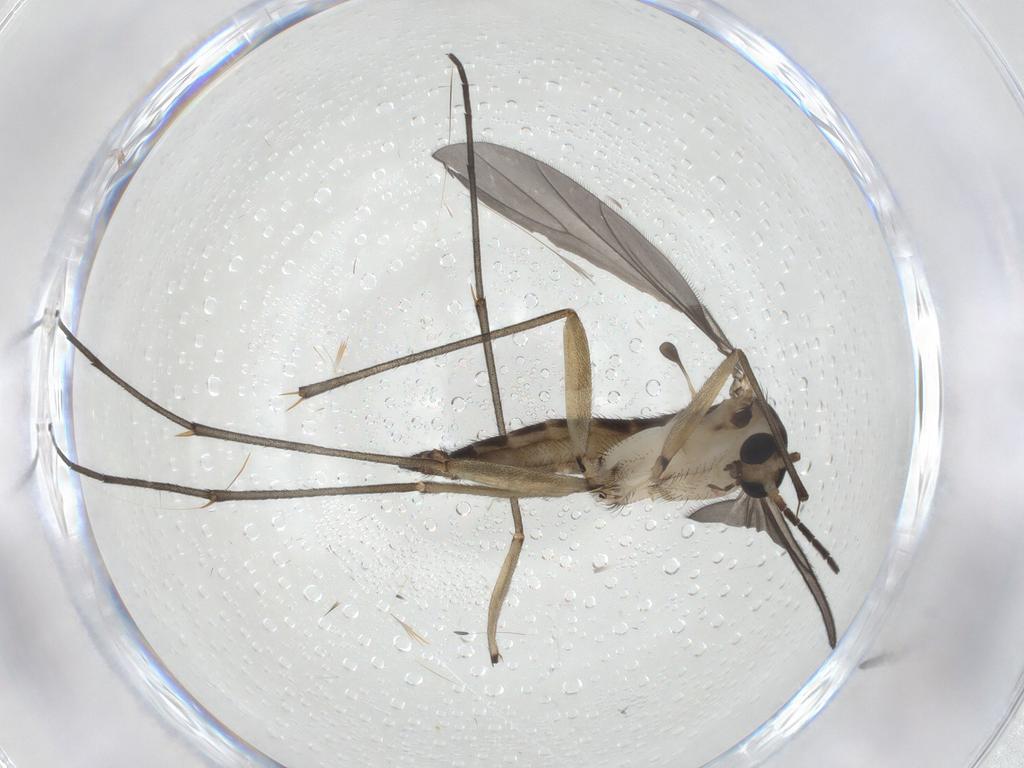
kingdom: Animalia
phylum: Arthropoda
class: Insecta
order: Diptera
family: Sciaridae
